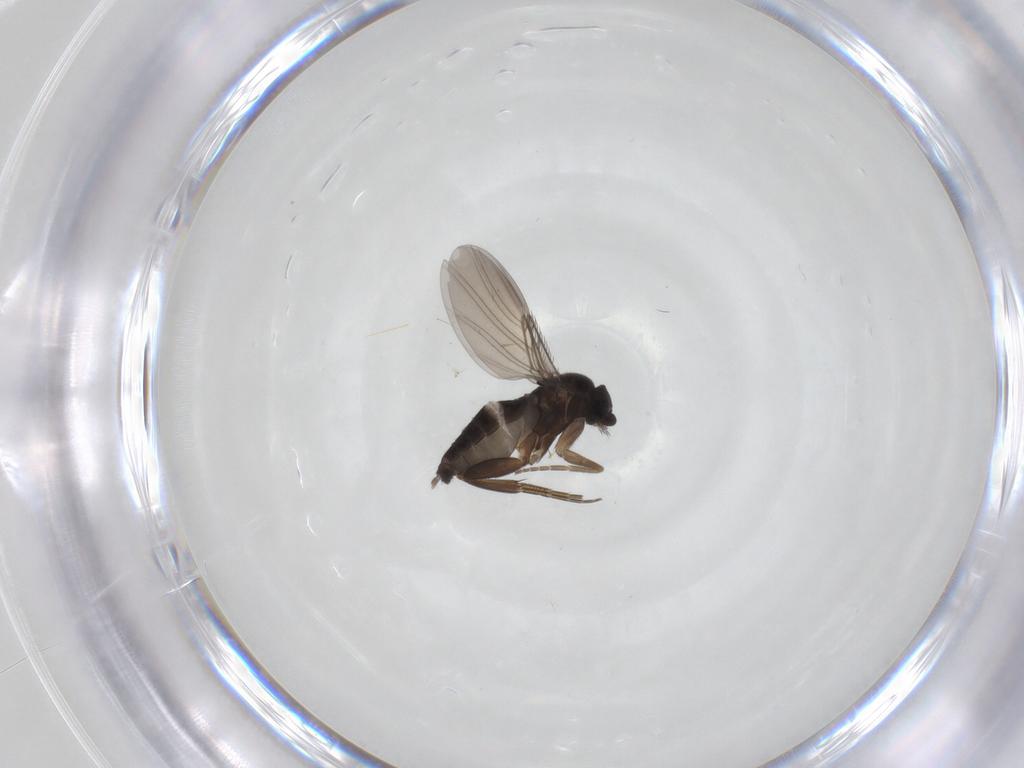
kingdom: Animalia
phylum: Arthropoda
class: Insecta
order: Diptera
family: Phoridae
